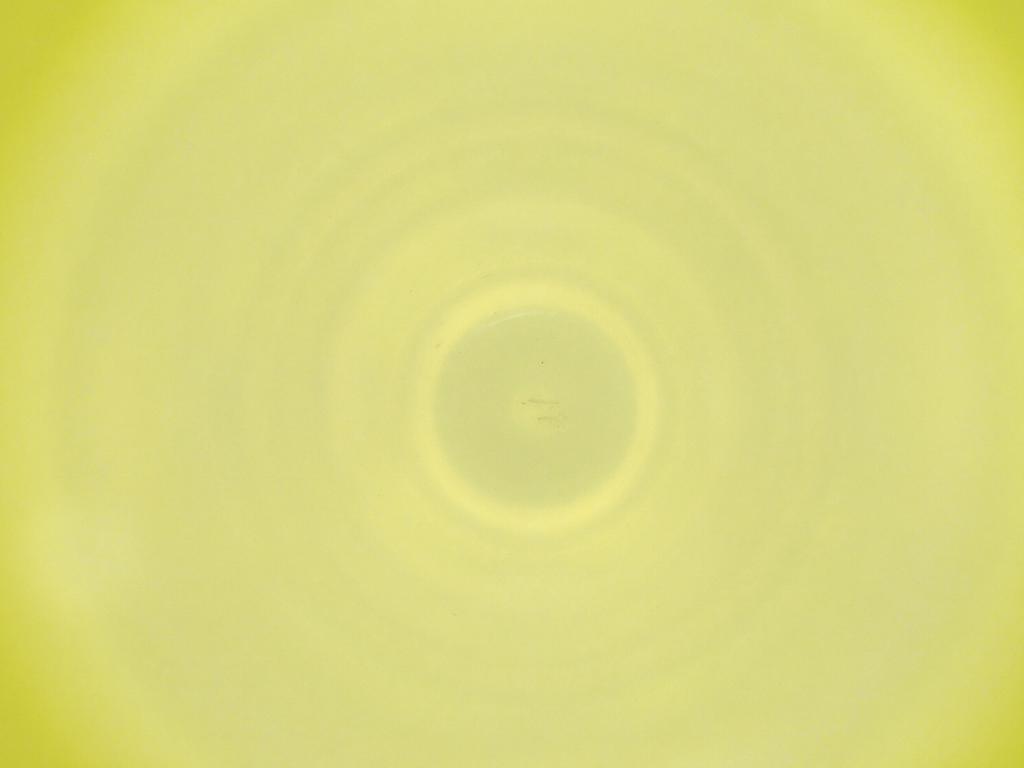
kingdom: Animalia
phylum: Arthropoda
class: Insecta
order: Diptera
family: Cecidomyiidae
